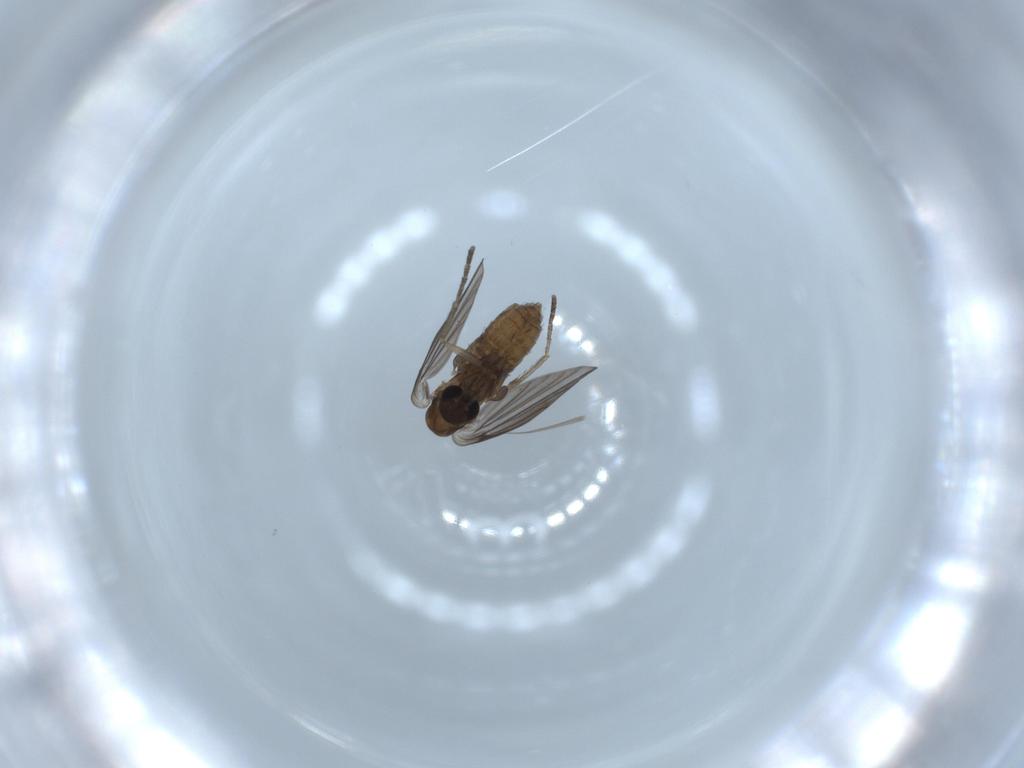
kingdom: Animalia
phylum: Arthropoda
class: Insecta
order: Diptera
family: Psychodidae
